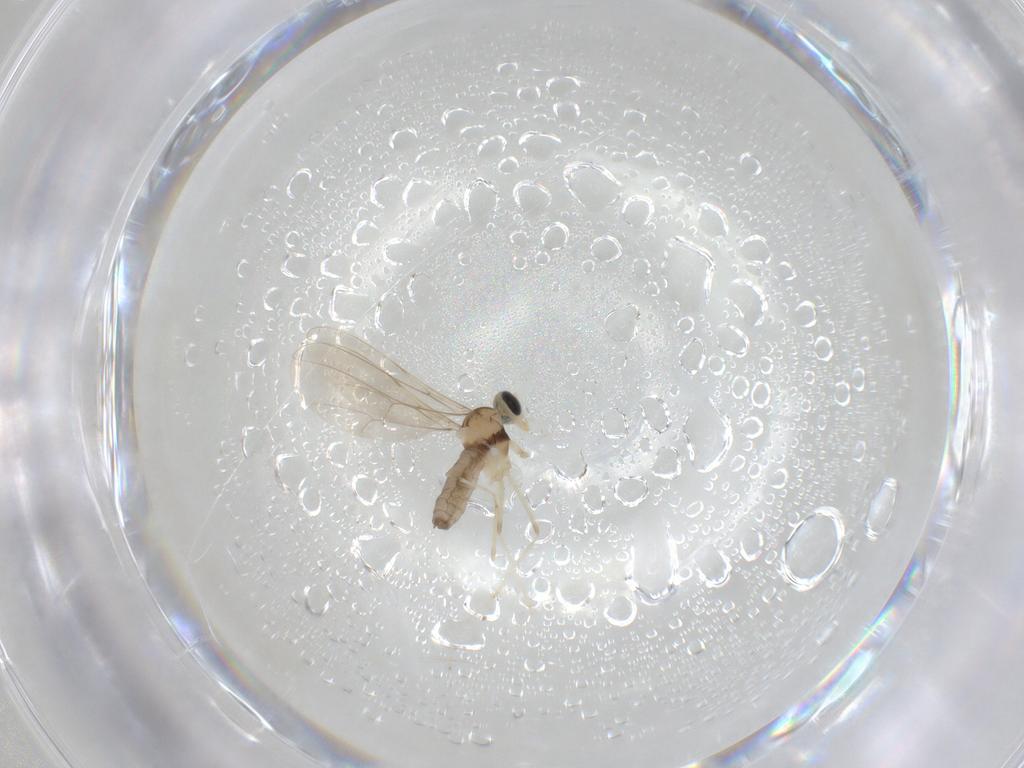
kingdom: Animalia
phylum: Arthropoda
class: Insecta
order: Diptera
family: Cecidomyiidae
